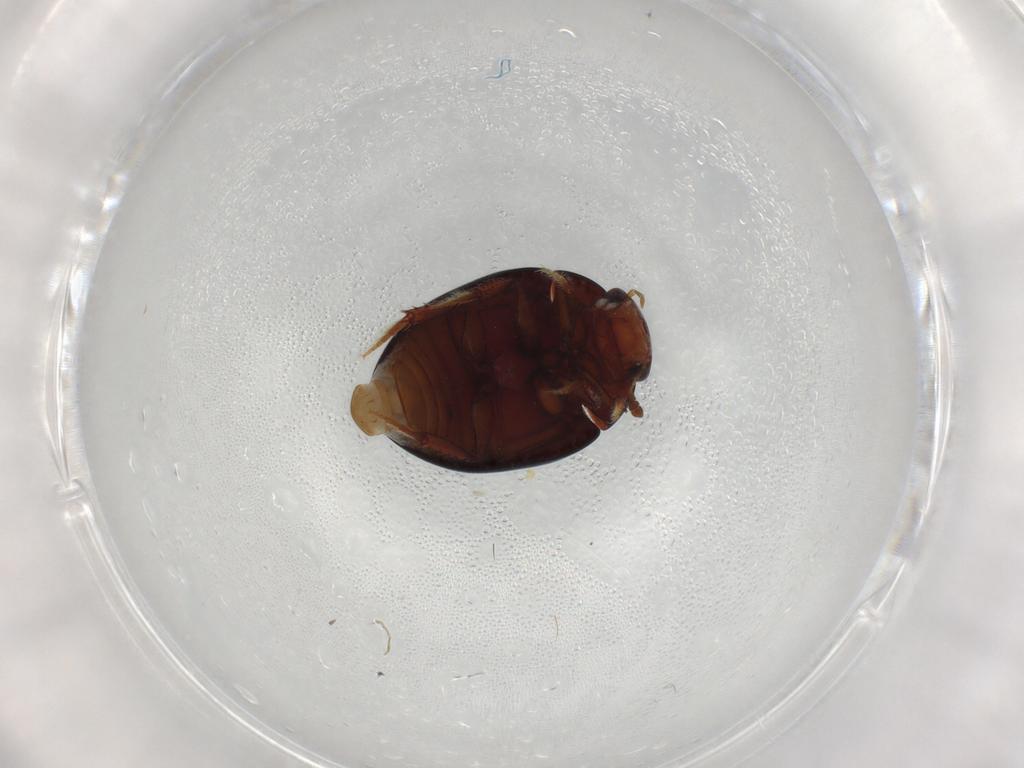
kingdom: Animalia
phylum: Arthropoda
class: Insecta
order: Coleoptera
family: Hydrophilidae
